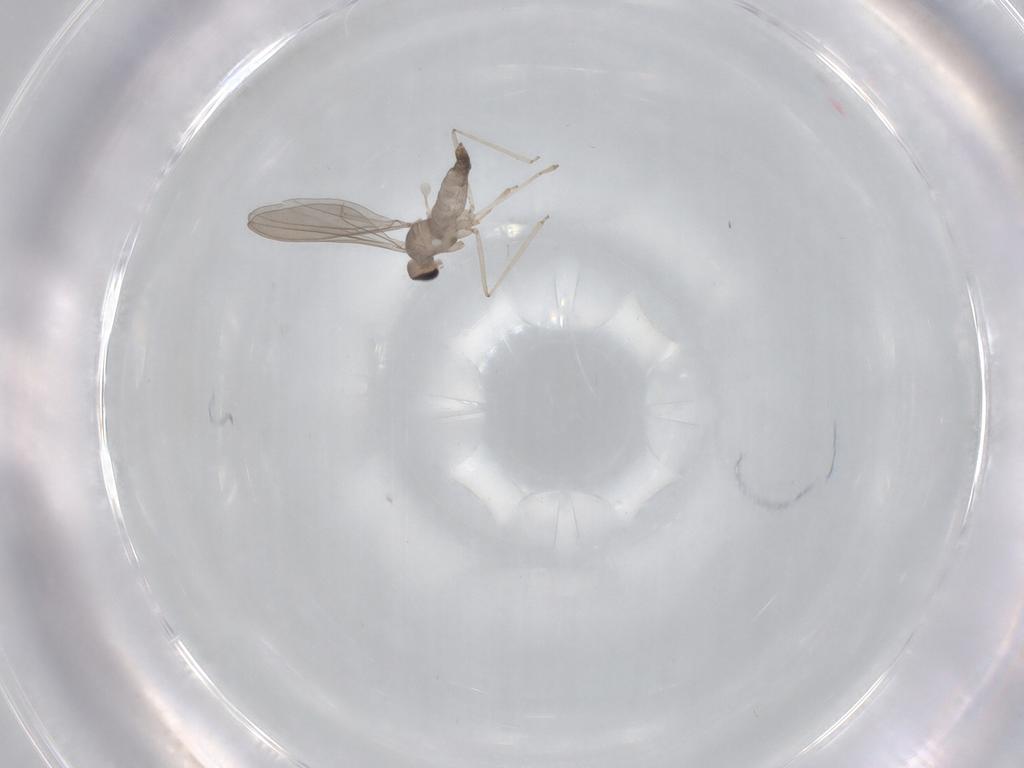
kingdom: Animalia
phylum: Arthropoda
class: Insecta
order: Diptera
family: Cecidomyiidae
